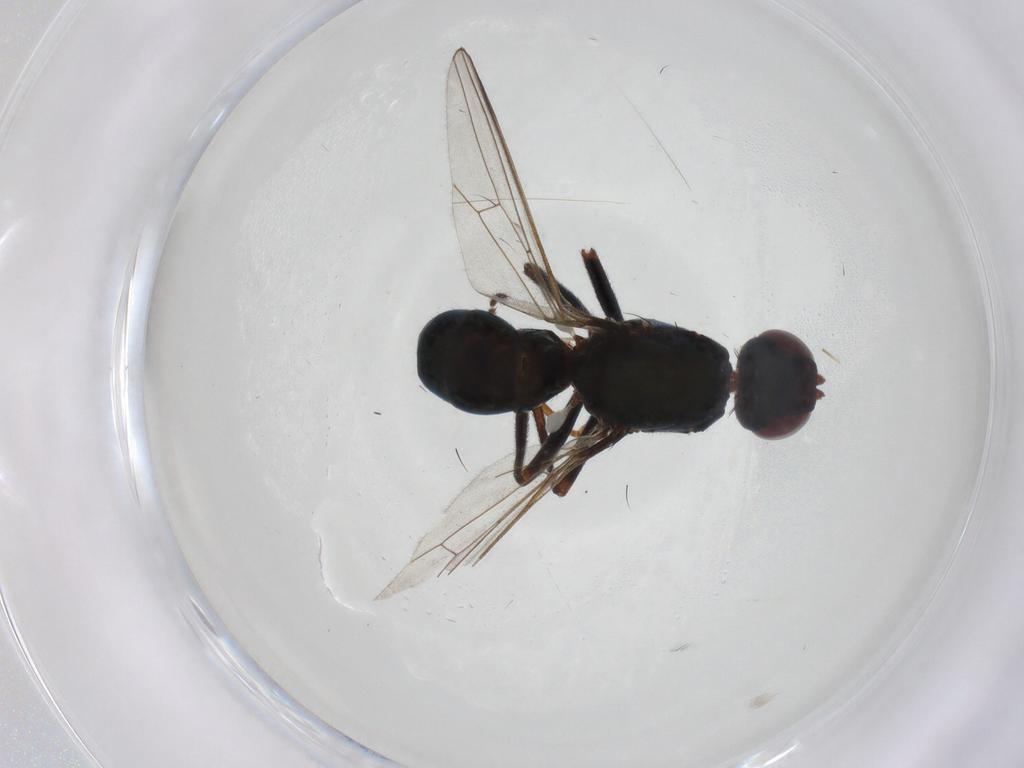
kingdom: Animalia
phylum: Arthropoda
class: Insecta
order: Diptera
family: Sepsidae
